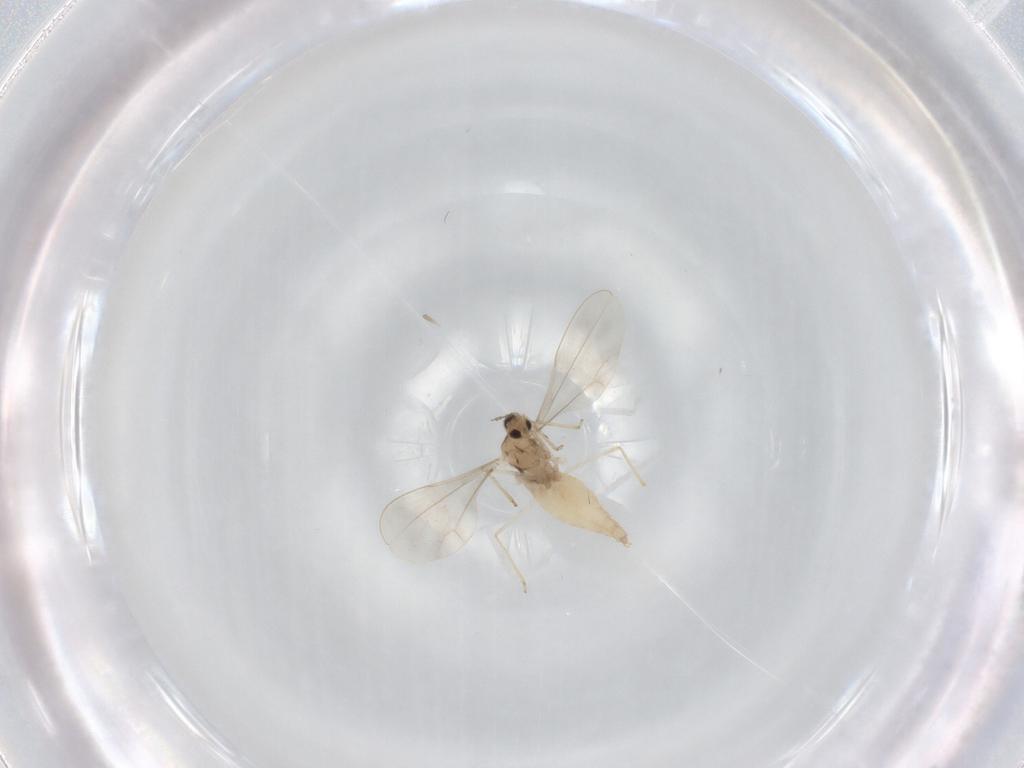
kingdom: Animalia
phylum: Arthropoda
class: Insecta
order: Diptera
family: Cecidomyiidae
